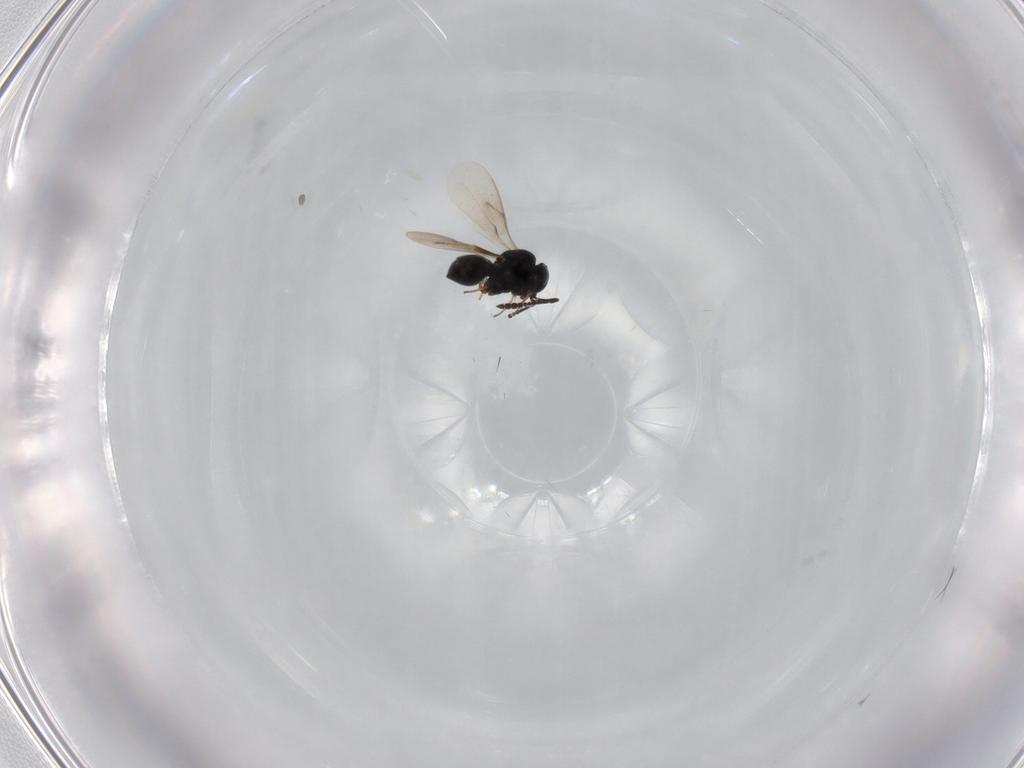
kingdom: Animalia
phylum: Arthropoda
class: Insecta
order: Hymenoptera
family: Scelionidae
